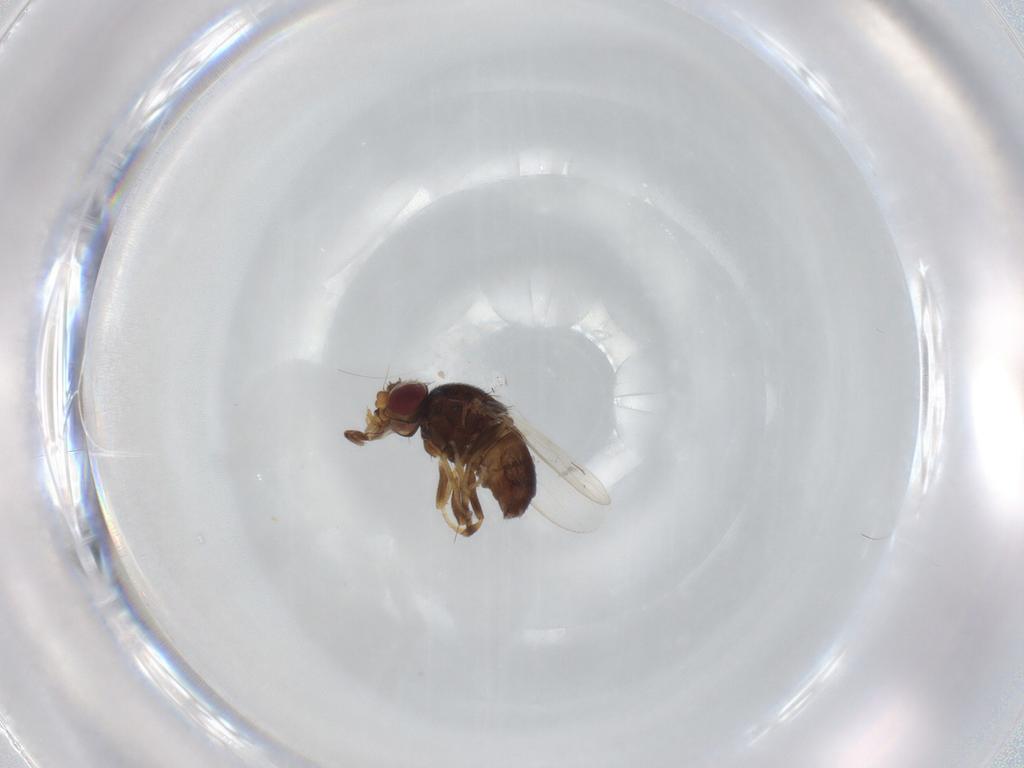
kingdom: Animalia
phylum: Arthropoda
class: Insecta
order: Diptera
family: Chloropidae
